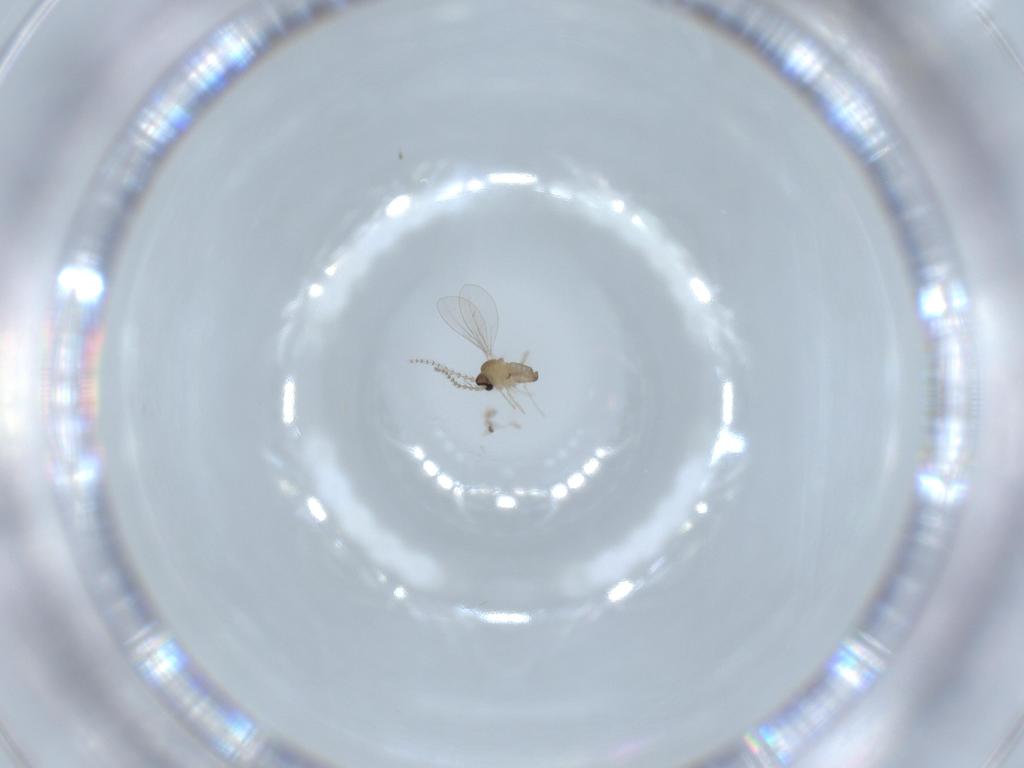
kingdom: Animalia
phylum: Arthropoda
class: Insecta
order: Diptera
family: Cecidomyiidae
